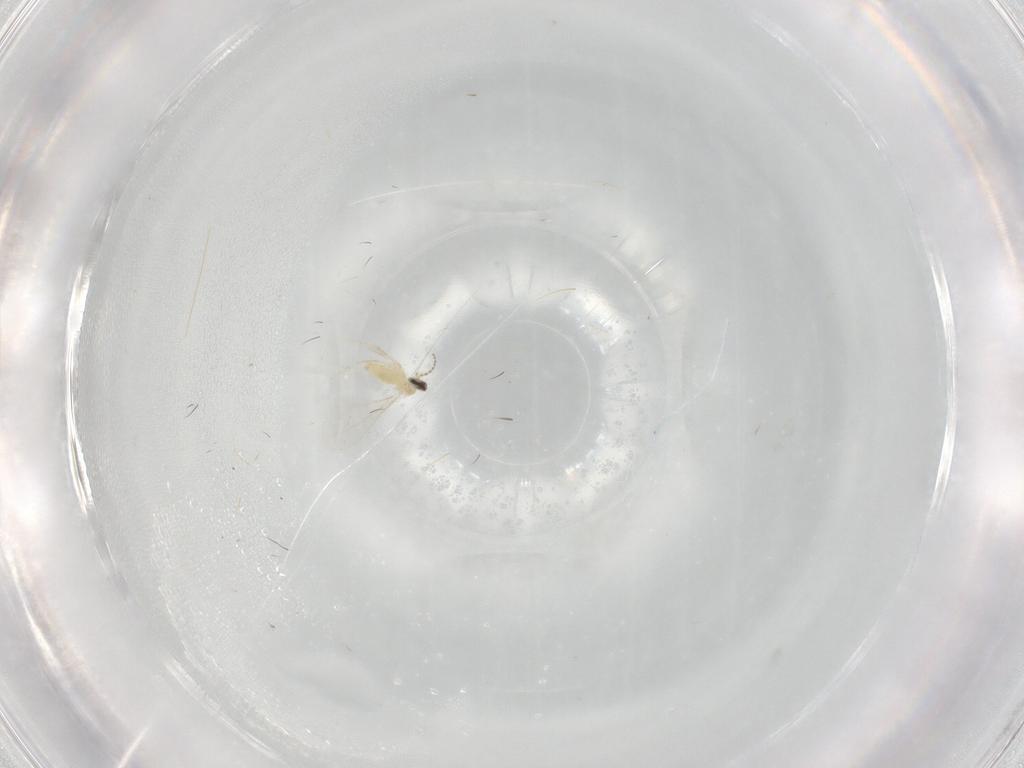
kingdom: Animalia
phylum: Arthropoda
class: Insecta
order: Diptera
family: Cecidomyiidae
